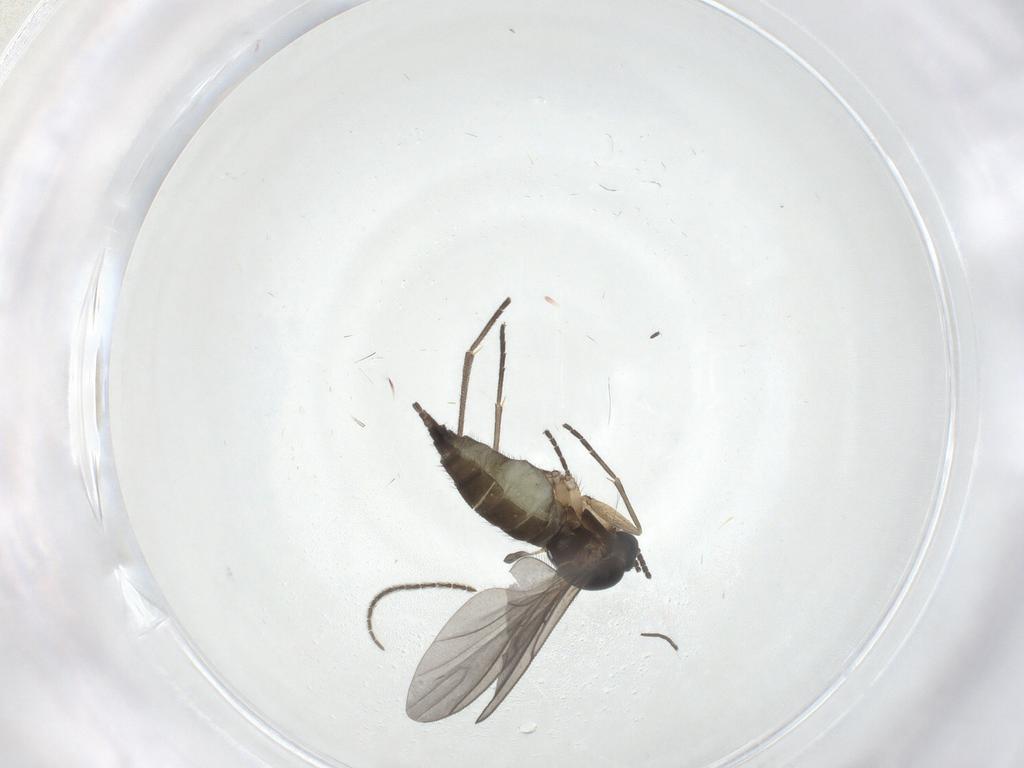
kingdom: Animalia
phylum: Arthropoda
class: Insecta
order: Diptera
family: Sciaridae
